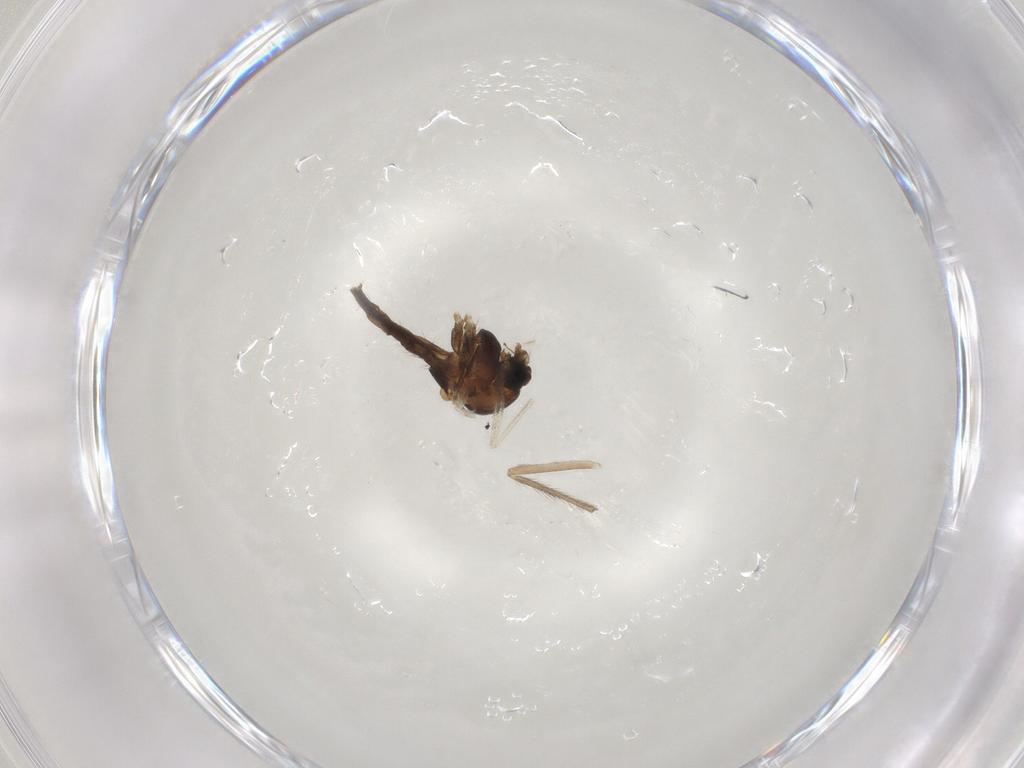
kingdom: Animalia
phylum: Arthropoda
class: Insecta
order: Diptera
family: Chironomidae
